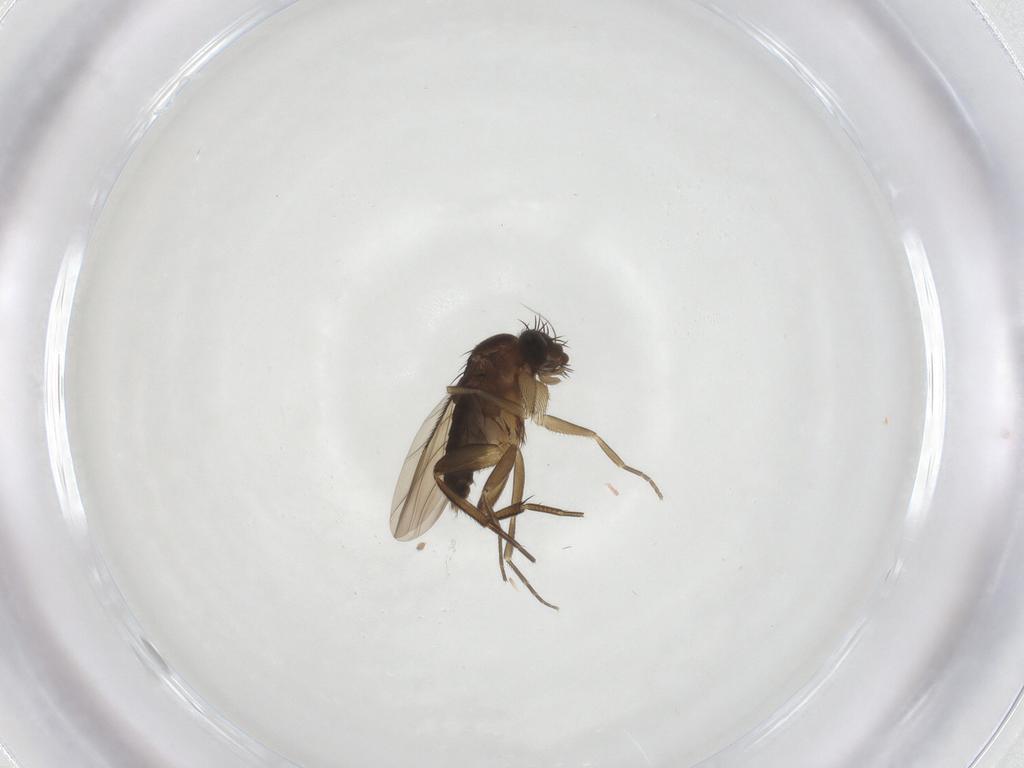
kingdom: Animalia
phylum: Arthropoda
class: Insecta
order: Diptera
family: Phoridae
